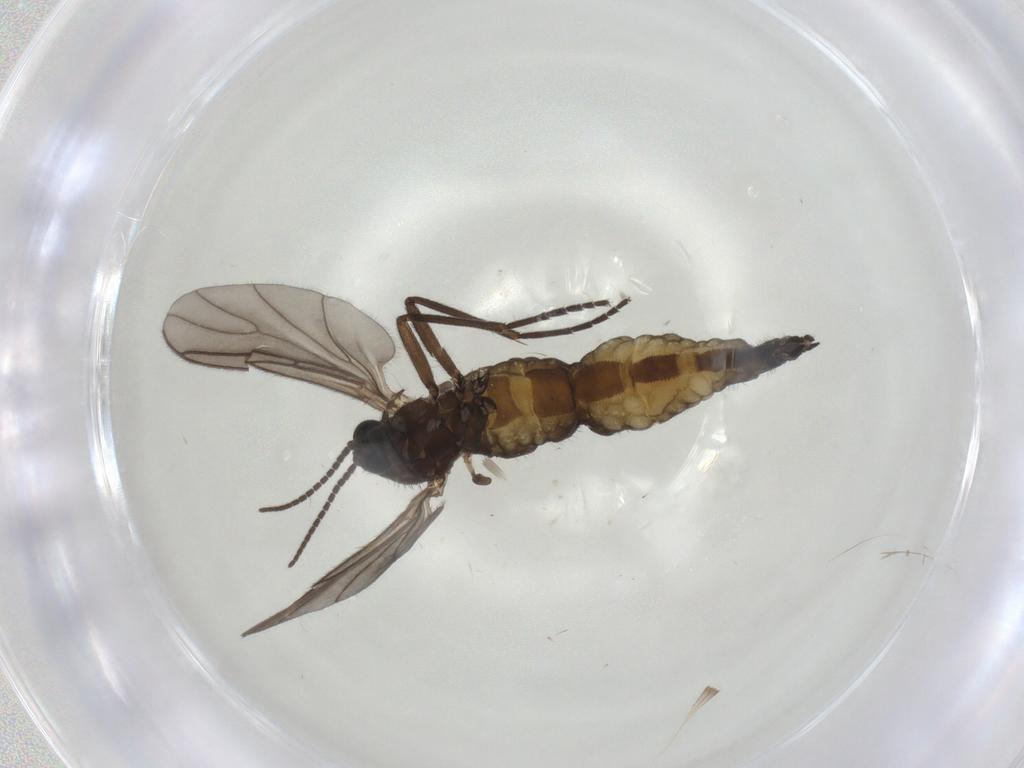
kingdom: Animalia
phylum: Arthropoda
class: Insecta
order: Diptera
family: Sciaridae
